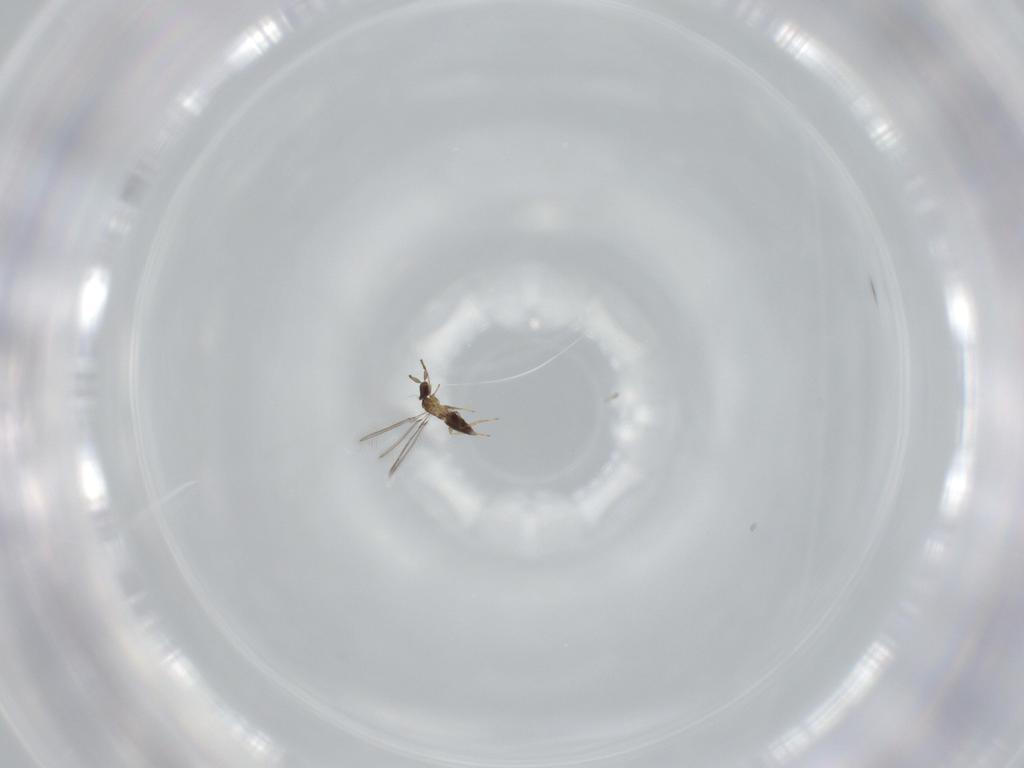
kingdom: Animalia
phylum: Arthropoda
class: Insecta
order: Hymenoptera
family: Mymaridae
